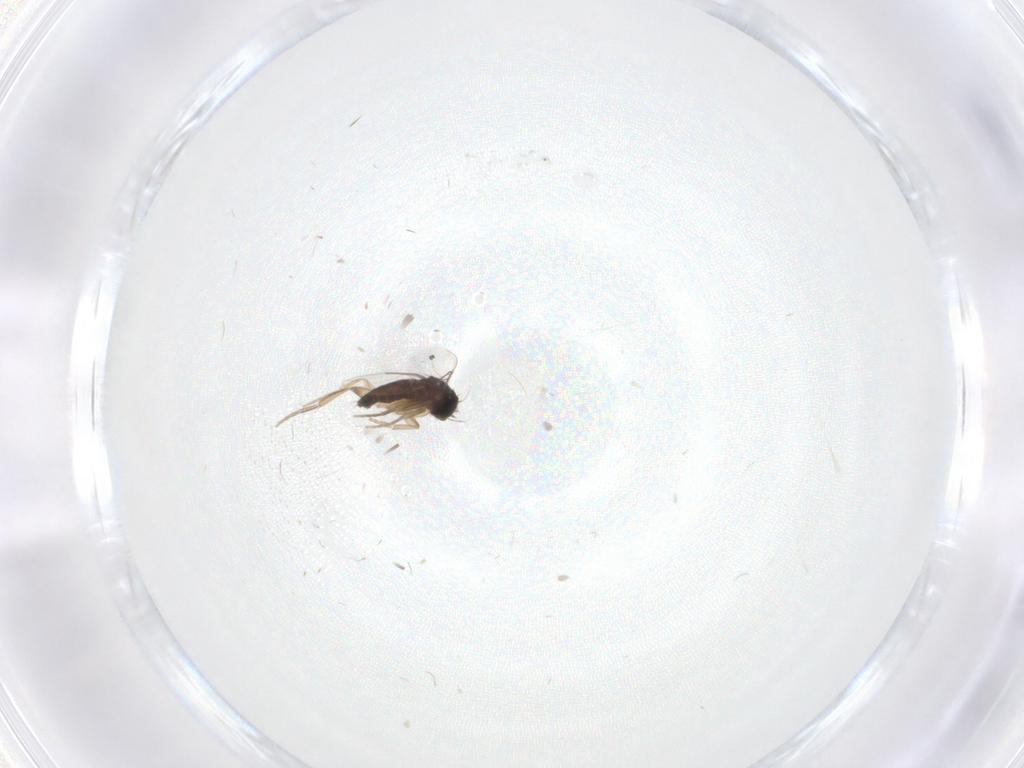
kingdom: Animalia
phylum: Arthropoda
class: Insecta
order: Diptera
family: Phoridae
